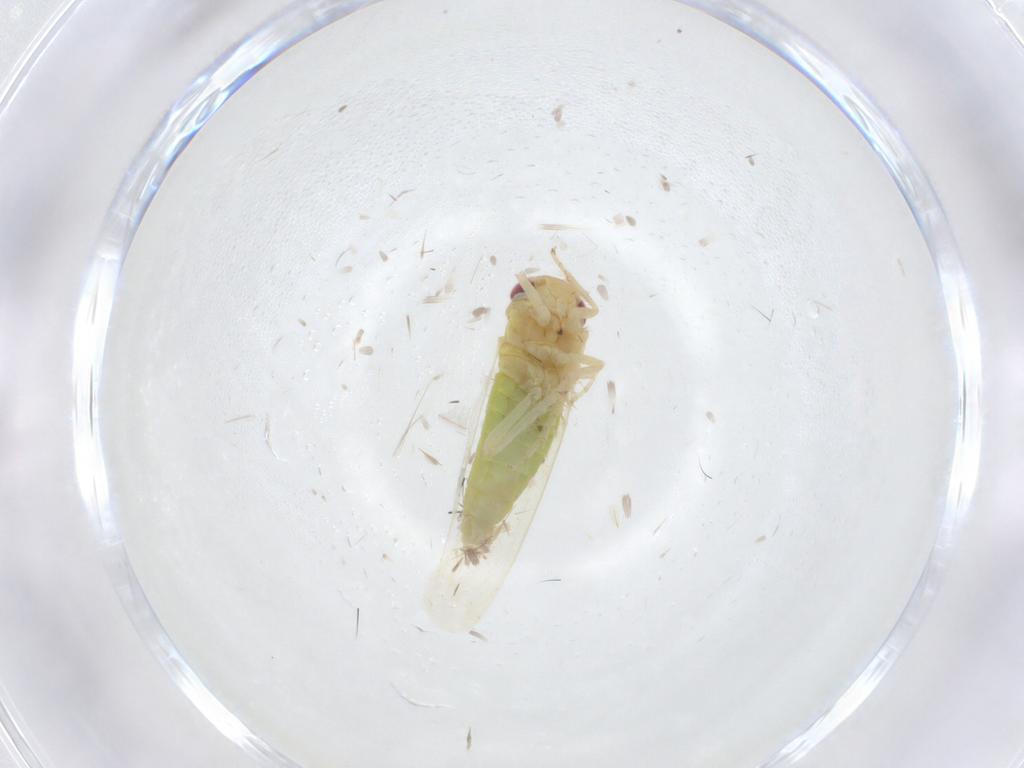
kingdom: Animalia
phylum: Arthropoda
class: Insecta
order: Hemiptera
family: Cicadellidae
